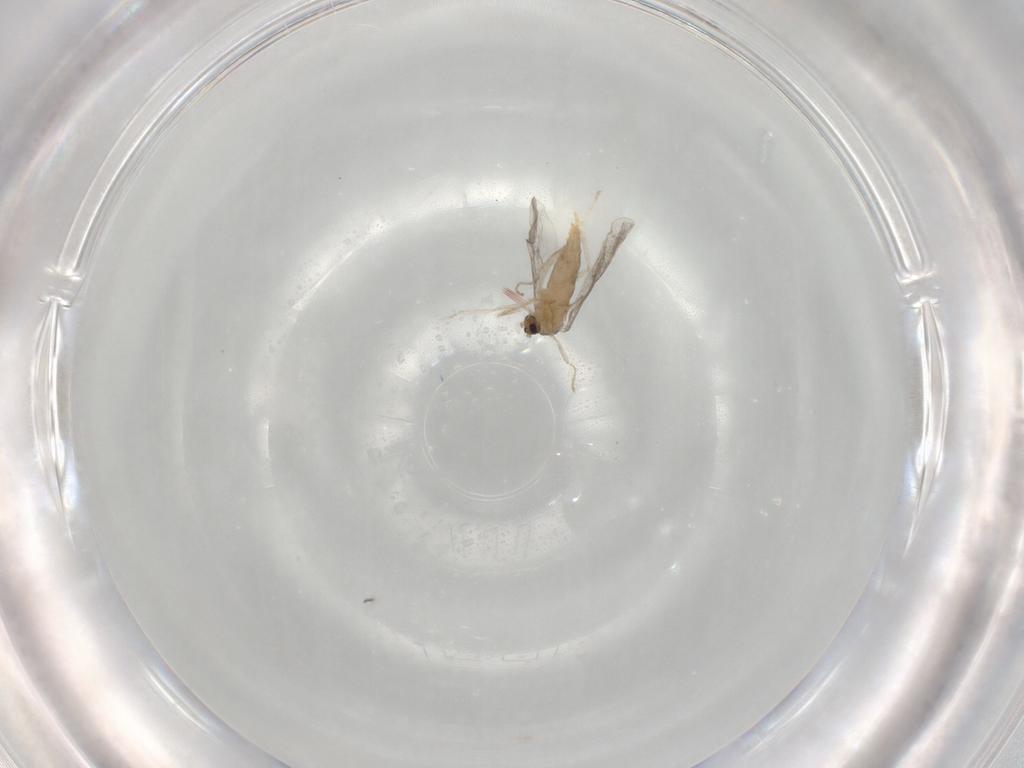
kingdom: Animalia
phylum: Arthropoda
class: Insecta
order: Diptera
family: Cecidomyiidae
